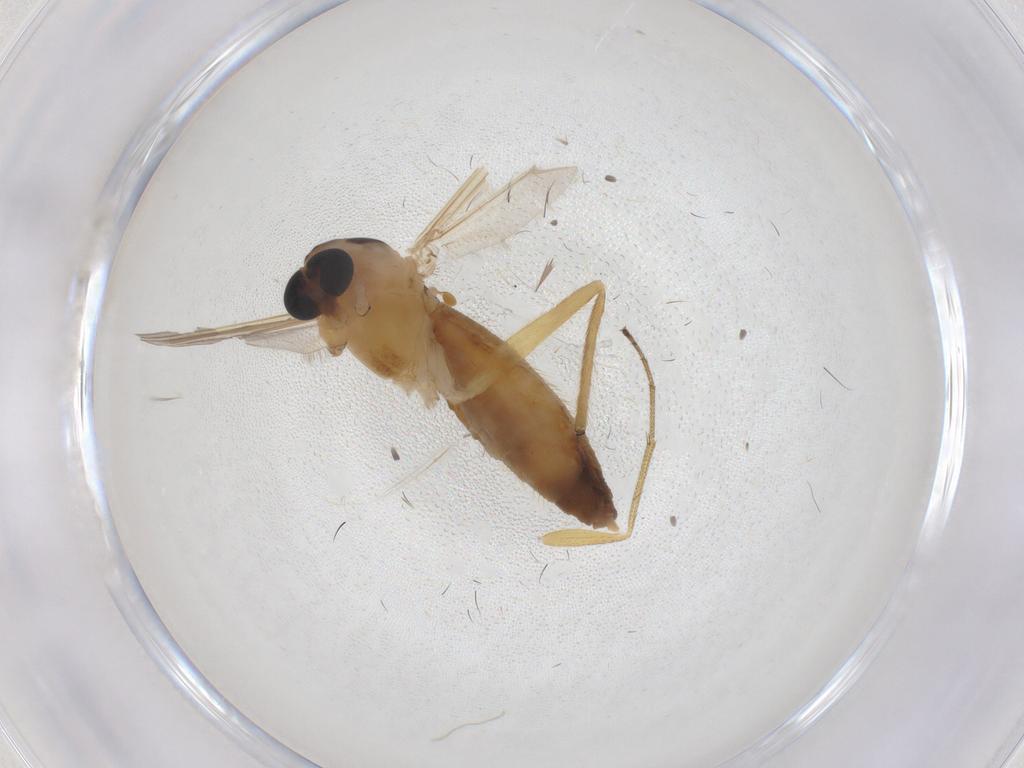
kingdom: Animalia
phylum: Arthropoda
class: Insecta
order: Diptera
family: Chironomidae
